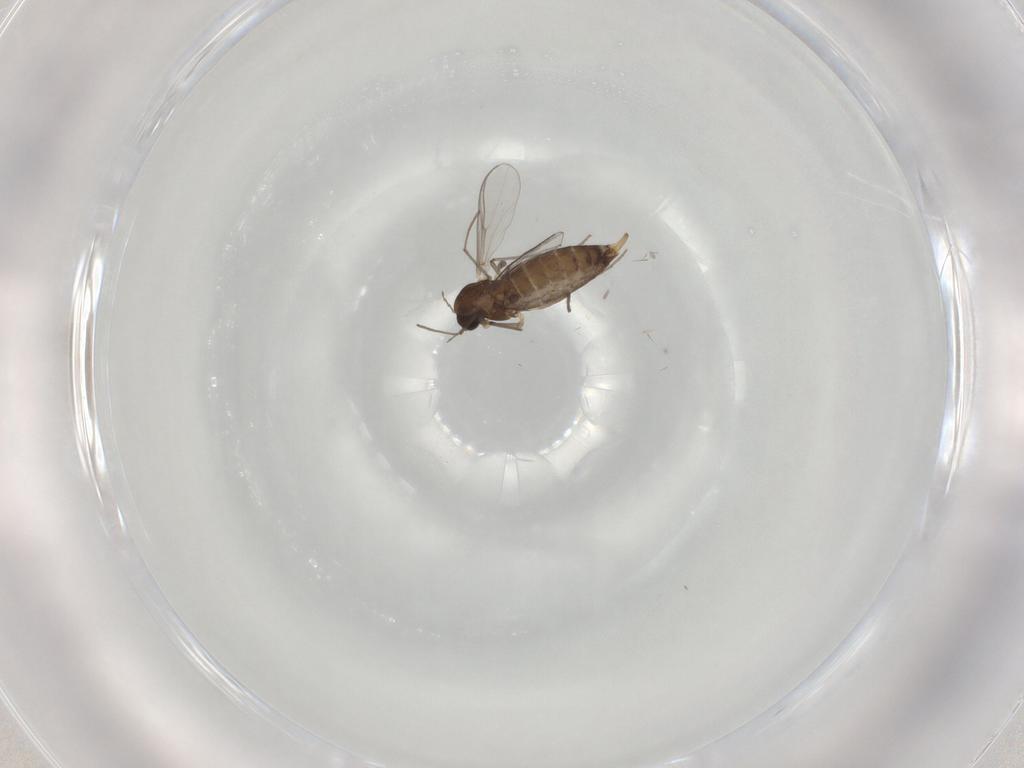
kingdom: Animalia
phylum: Arthropoda
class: Insecta
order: Diptera
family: Chironomidae
